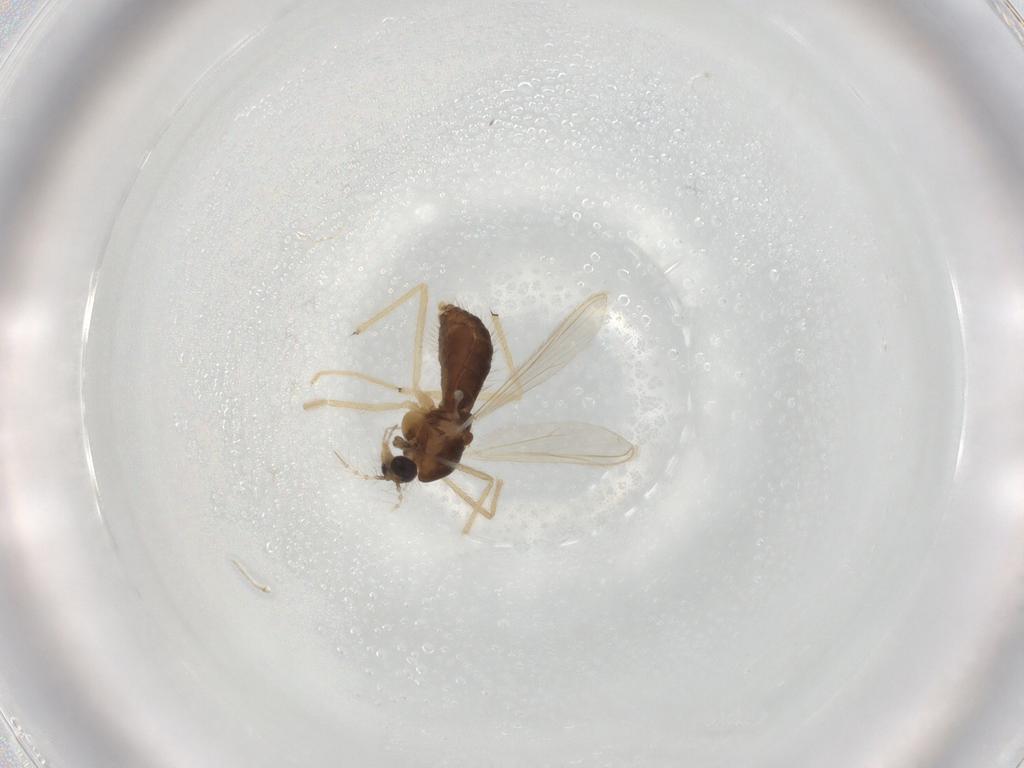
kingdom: Animalia
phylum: Arthropoda
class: Insecta
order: Diptera
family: Chironomidae
